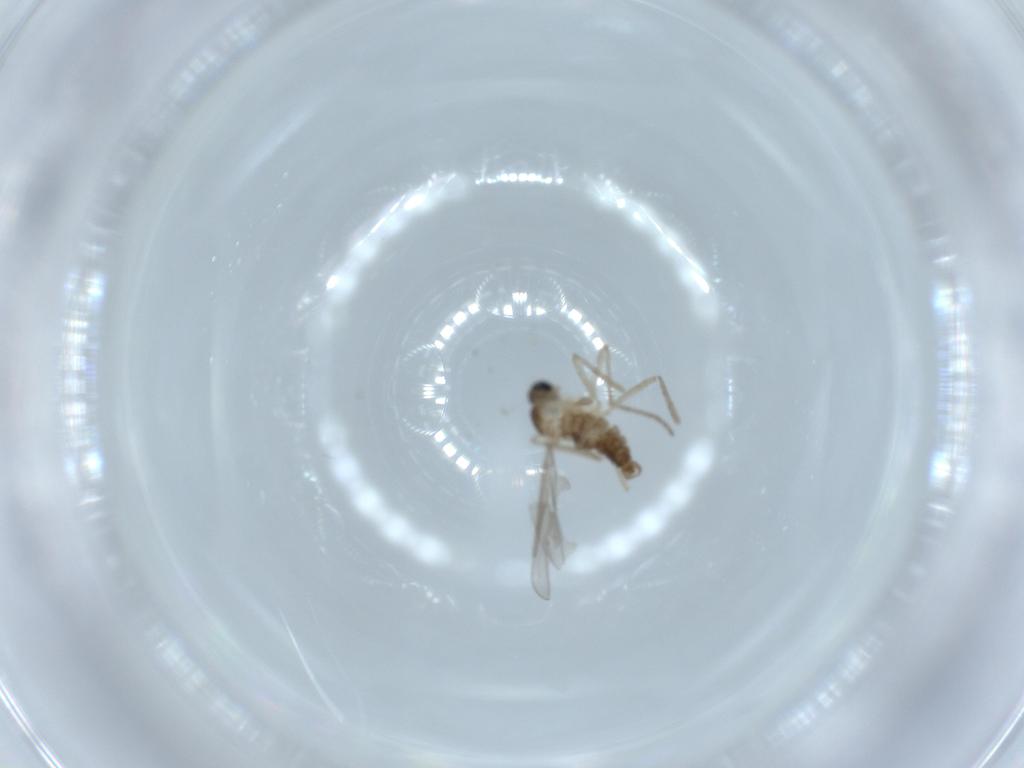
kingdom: Animalia
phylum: Arthropoda
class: Insecta
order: Diptera
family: Cecidomyiidae
